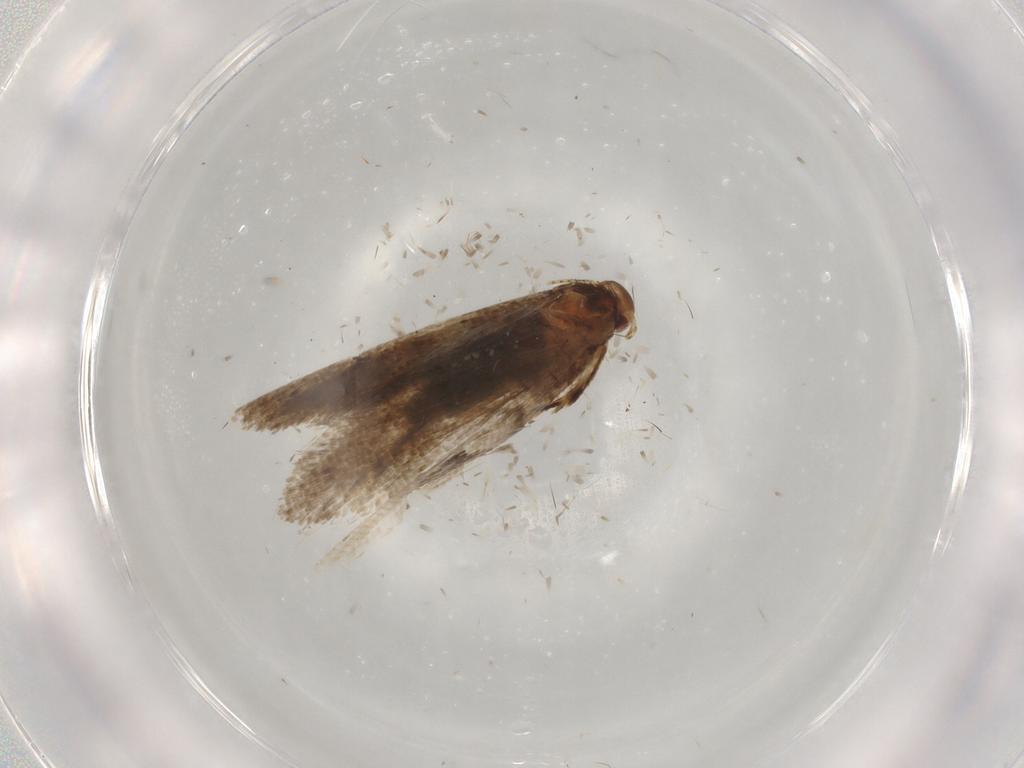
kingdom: Animalia
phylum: Arthropoda
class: Insecta
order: Lepidoptera
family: Oecophoridae
